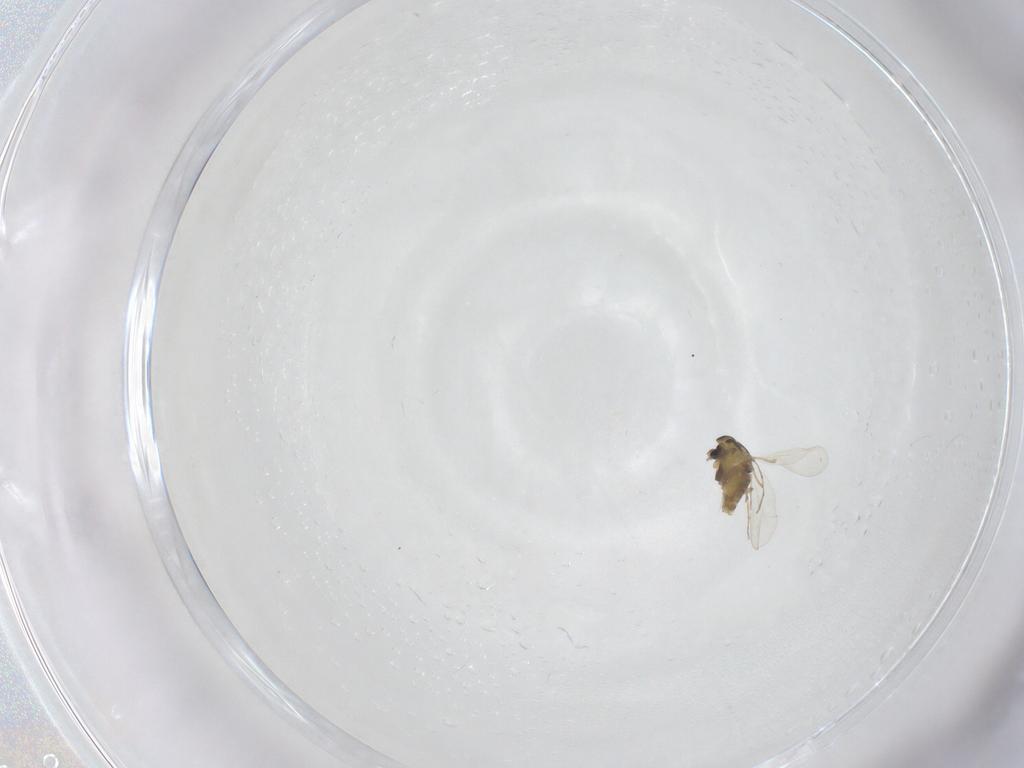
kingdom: Animalia
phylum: Arthropoda
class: Insecta
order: Diptera
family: Chironomidae
